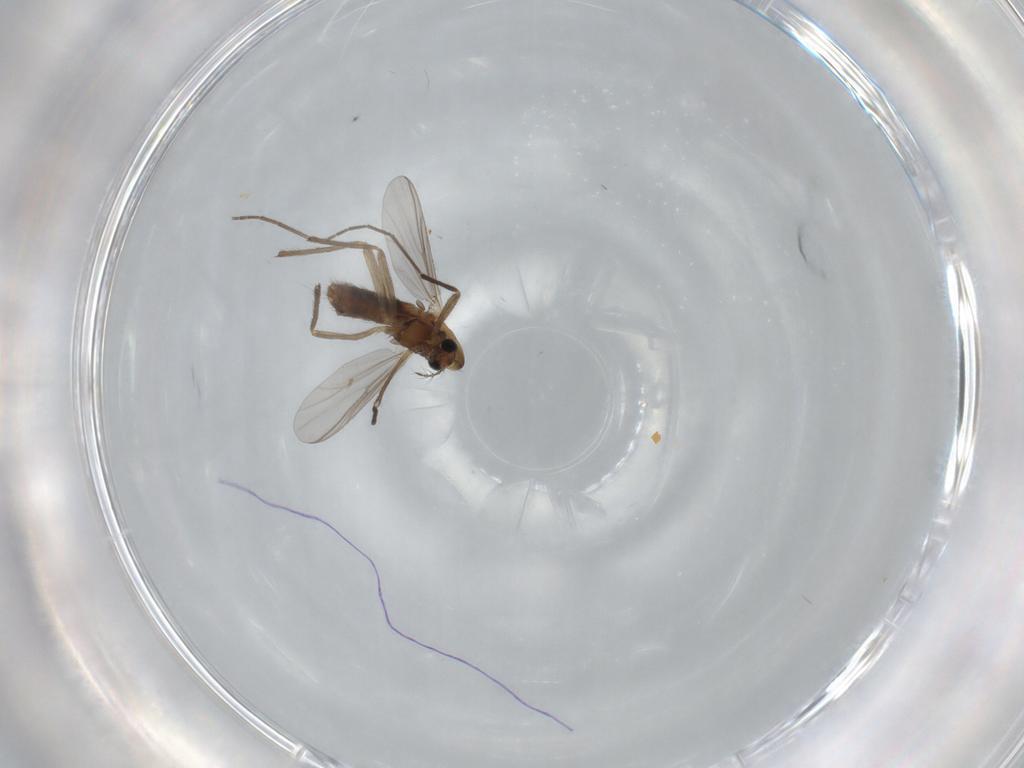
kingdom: Animalia
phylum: Arthropoda
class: Insecta
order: Diptera
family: Chironomidae
